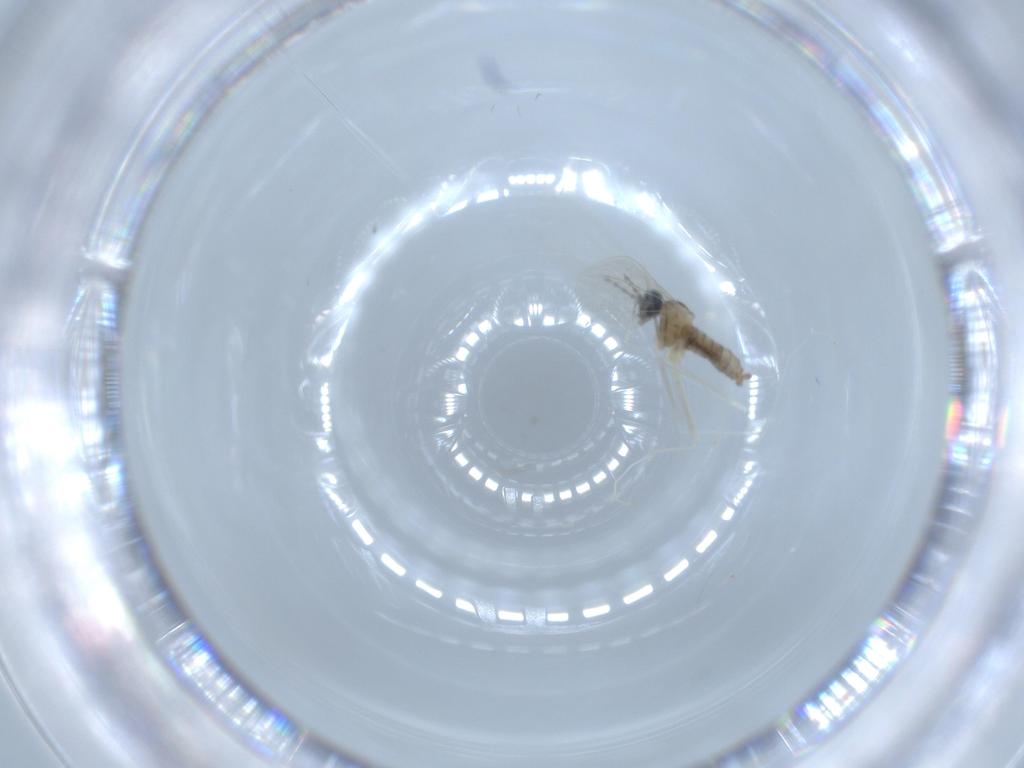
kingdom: Animalia
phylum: Arthropoda
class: Insecta
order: Diptera
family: Cecidomyiidae
